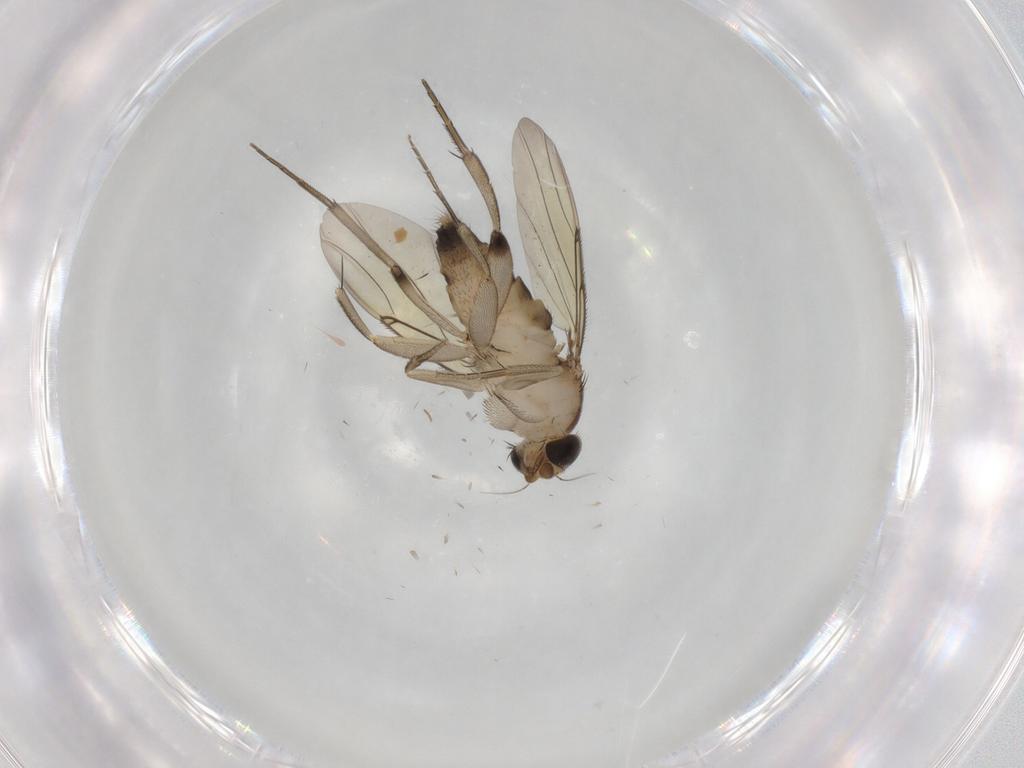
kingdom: Animalia
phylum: Arthropoda
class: Insecta
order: Diptera
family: Phoridae
